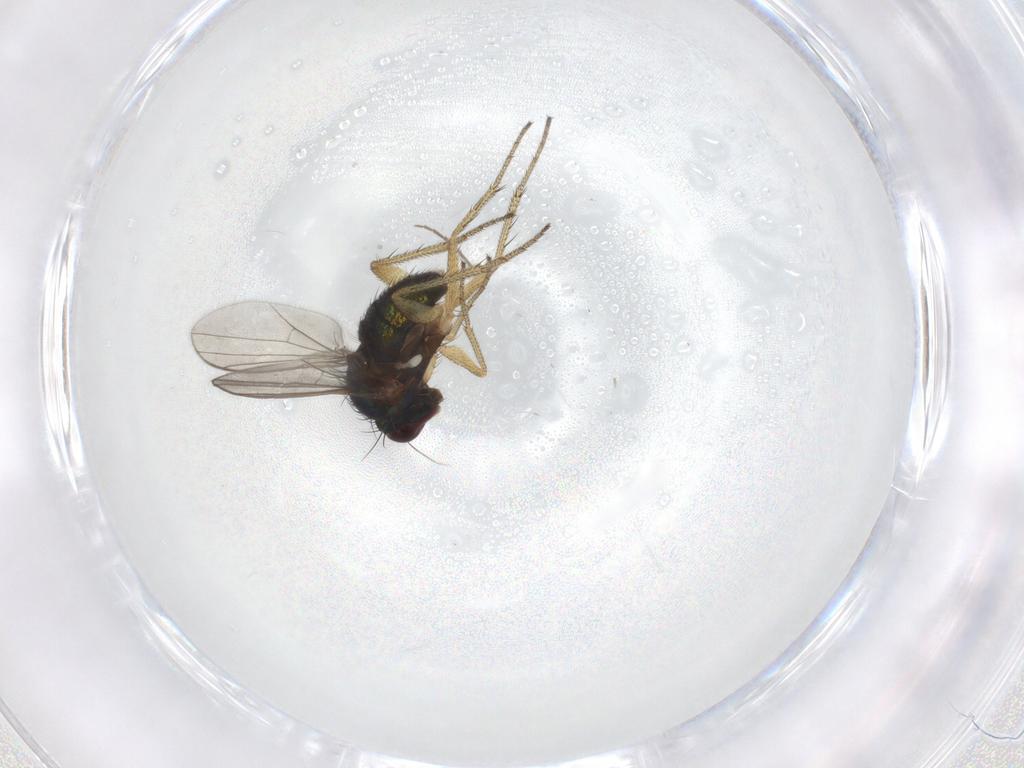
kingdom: Animalia
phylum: Arthropoda
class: Insecta
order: Diptera
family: Dolichopodidae
